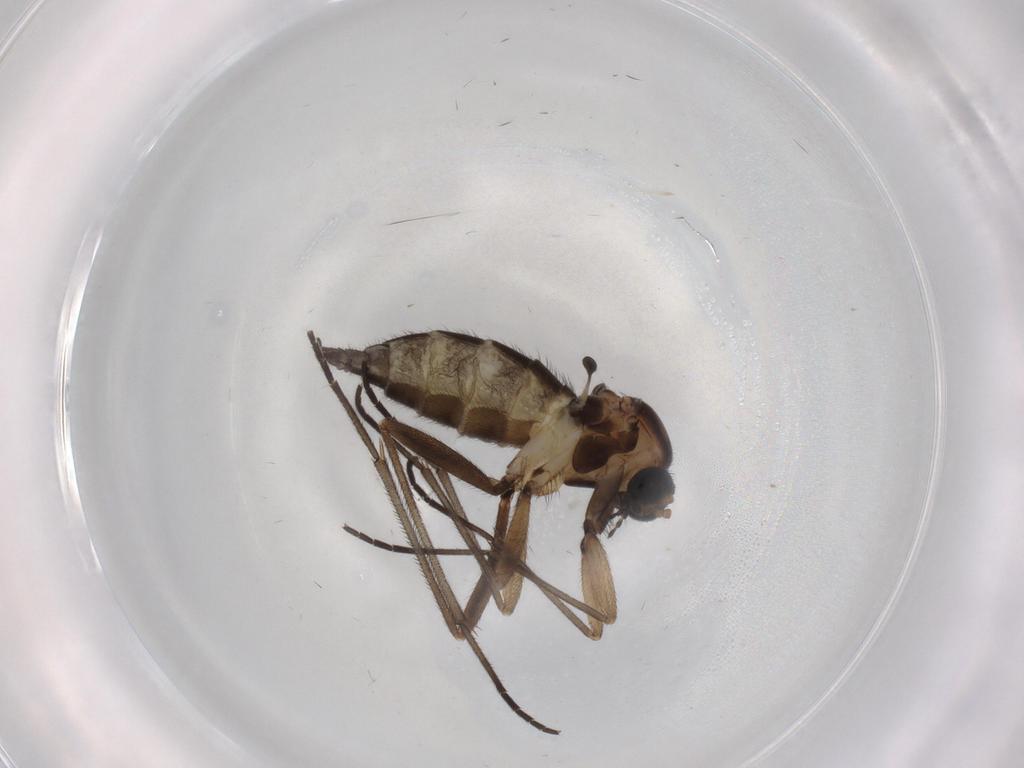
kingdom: Animalia
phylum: Arthropoda
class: Insecta
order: Diptera
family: Sciaridae
